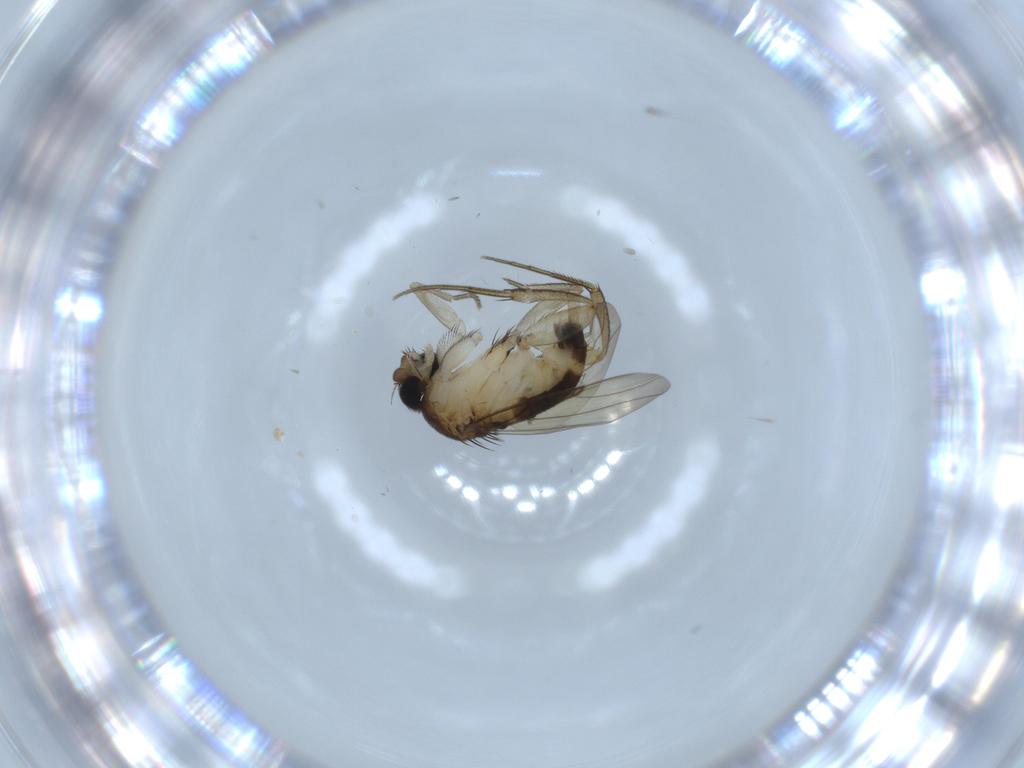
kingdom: Animalia
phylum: Arthropoda
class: Insecta
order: Diptera
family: Phoridae
